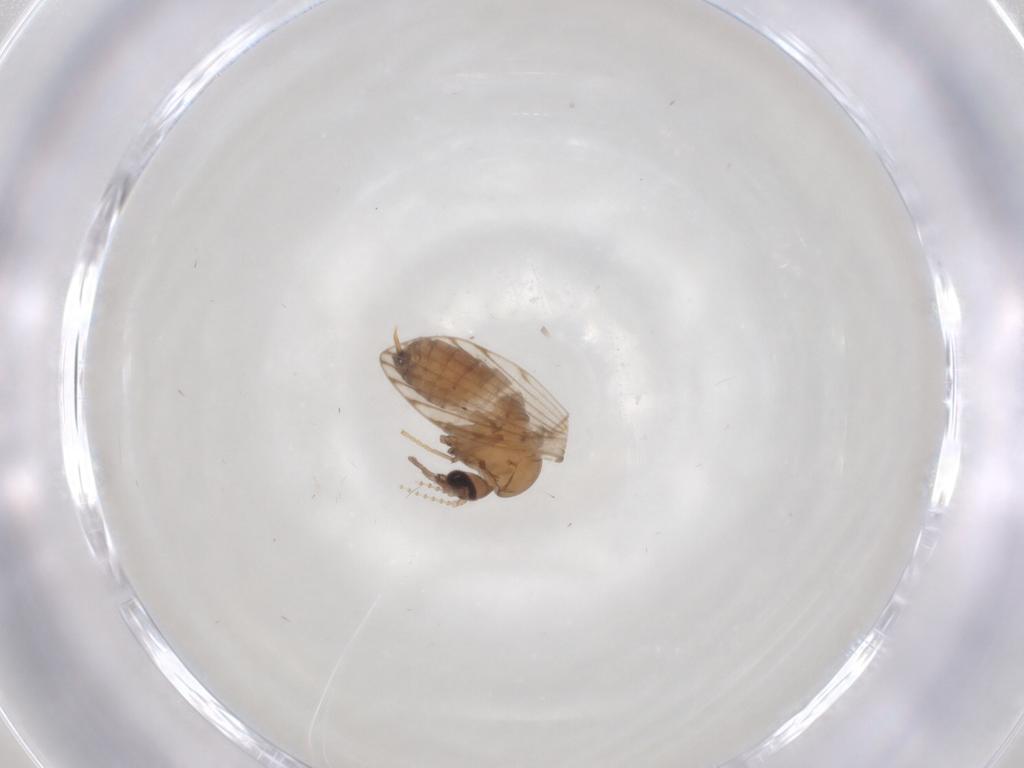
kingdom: Animalia
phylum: Arthropoda
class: Insecta
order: Diptera
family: Psychodidae
